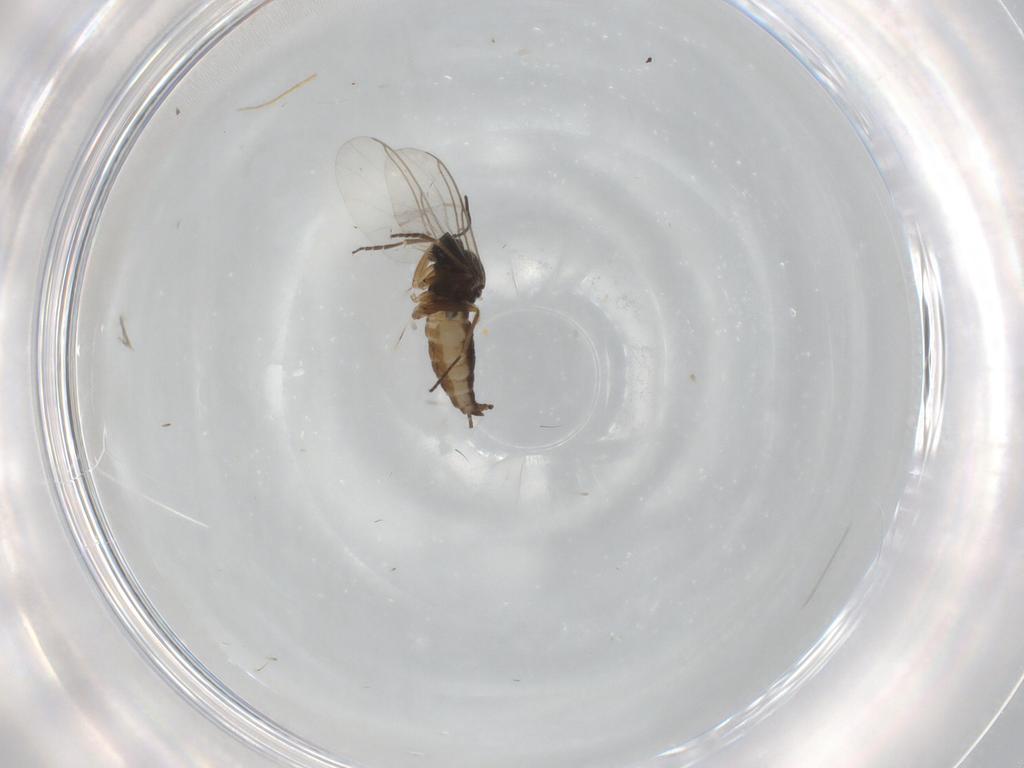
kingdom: Animalia
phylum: Arthropoda
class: Insecta
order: Diptera
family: Sciaridae
